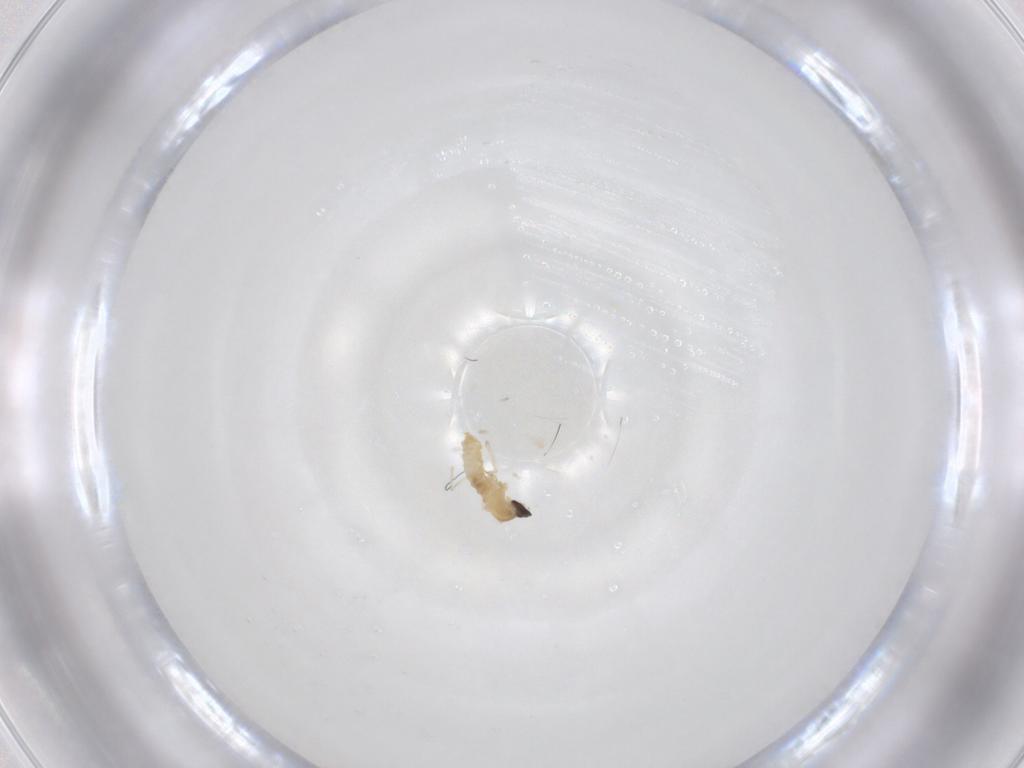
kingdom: Animalia
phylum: Arthropoda
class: Insecta
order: Diptera
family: Cecidomyiidae
